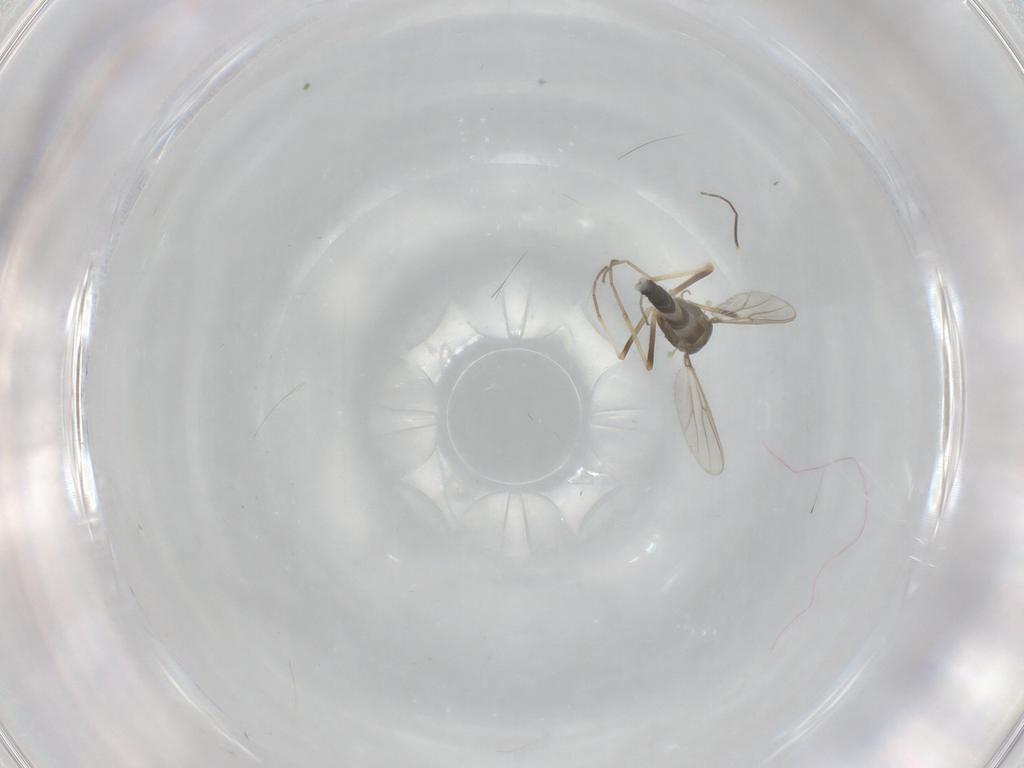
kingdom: Animalia
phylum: Arthropoda
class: Insecta
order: Diptera
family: Chironomidae
